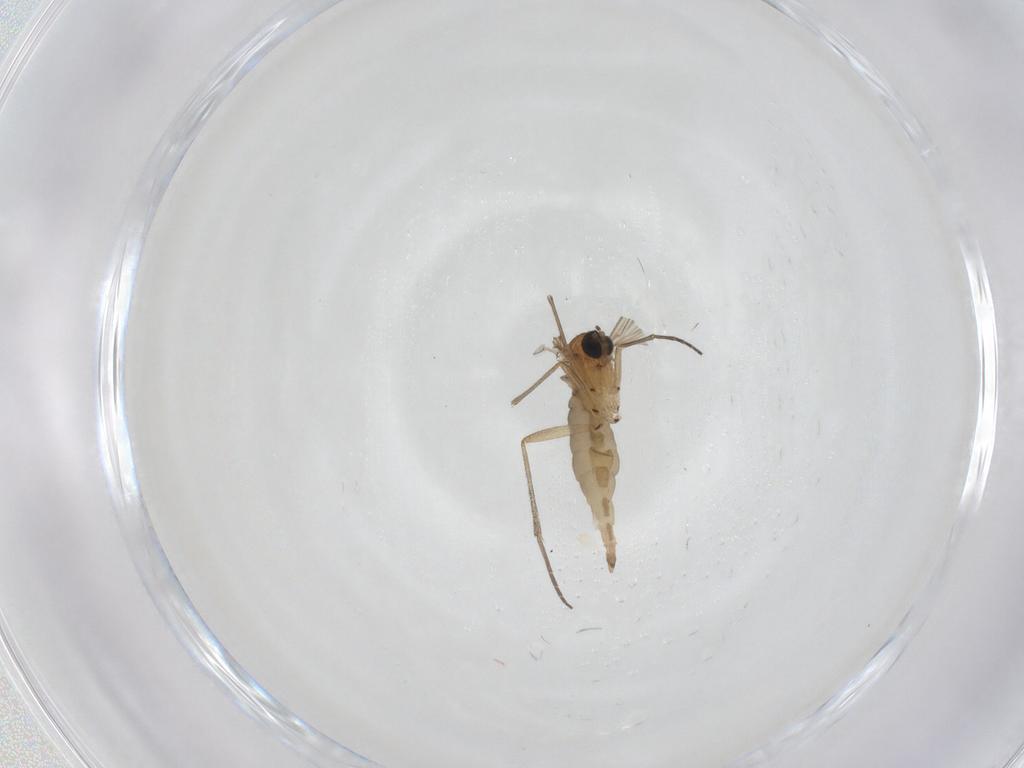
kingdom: Animalia
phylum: Arthropoda
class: Insecta
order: Diptera
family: Sciaridae
